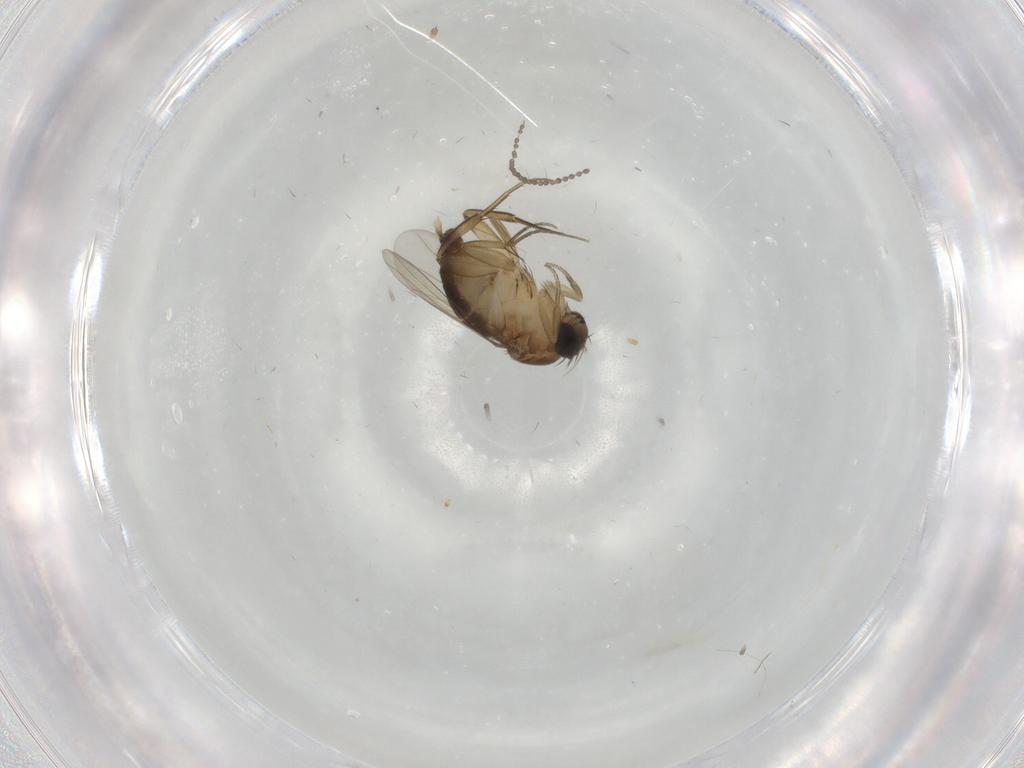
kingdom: Animalia
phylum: Arthropoda
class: Insecta
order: Diptera
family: Phoridae
